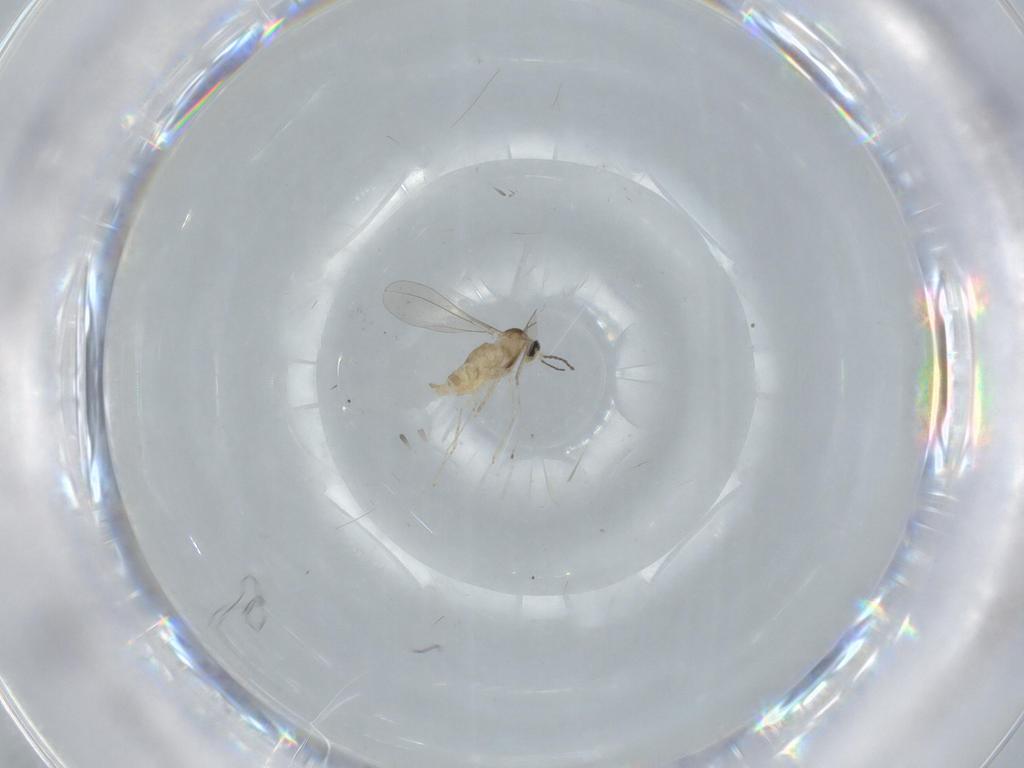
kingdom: Animalia
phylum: Arthropoda
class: Insecta
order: Diptera
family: Cecidomyiidae
